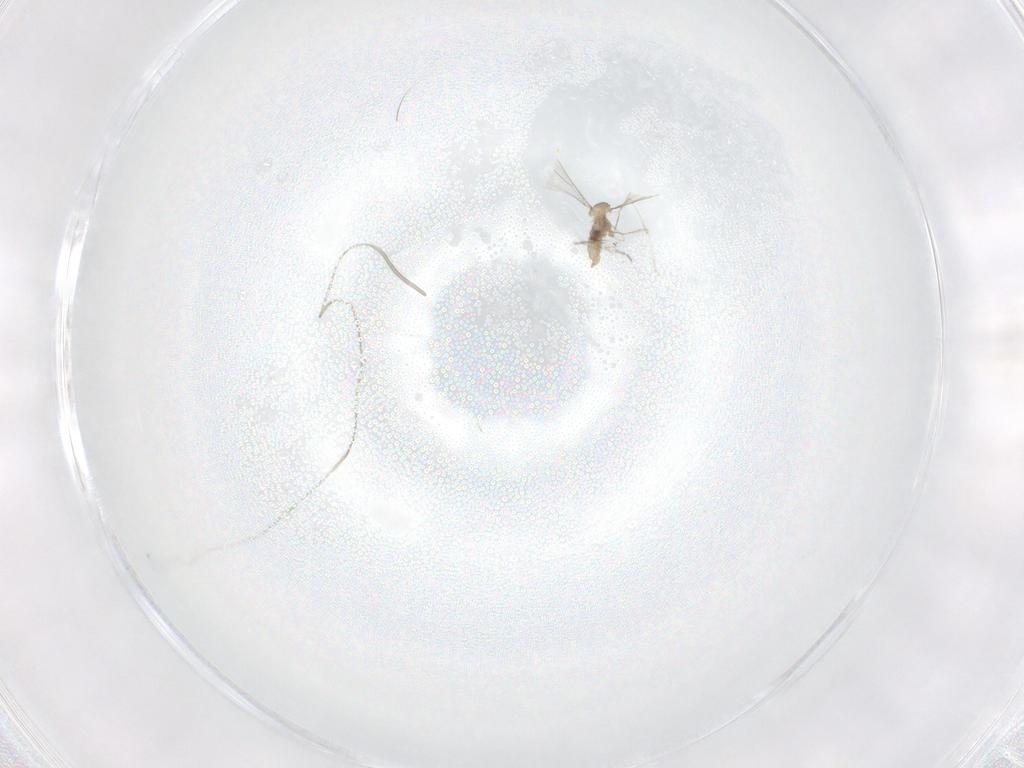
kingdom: Animalia
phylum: Arthropoda
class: Insecta
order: Diptera
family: Cecidomyiidae
